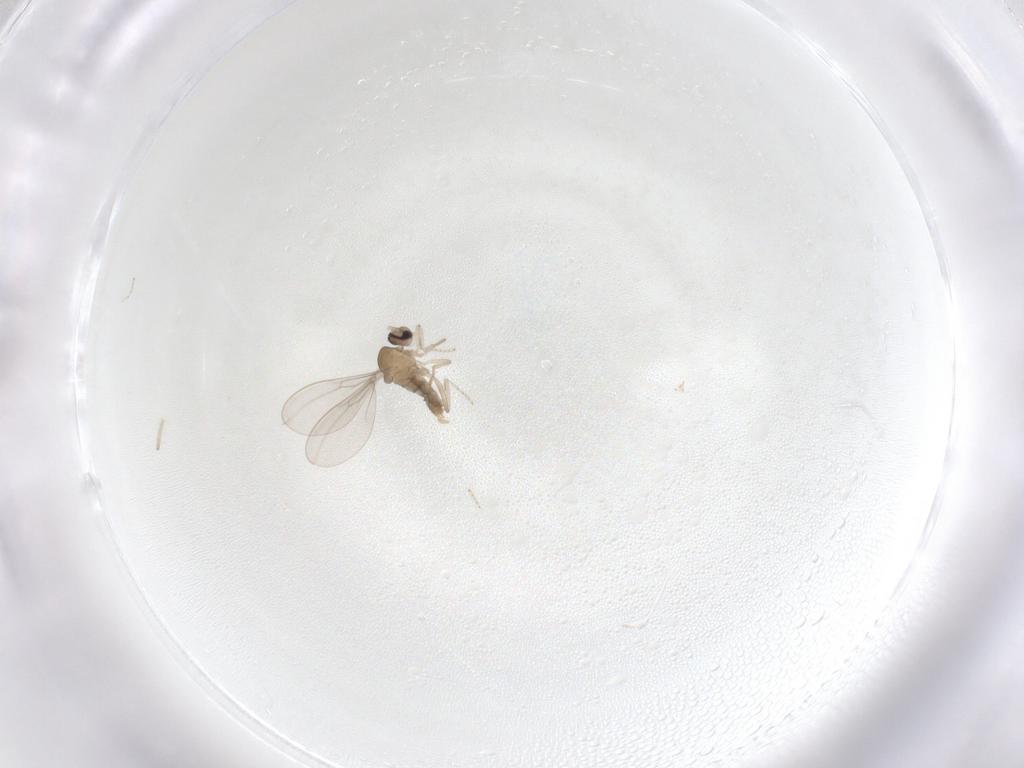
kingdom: Animalia
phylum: Arthropoda
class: Insecta
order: Diptera
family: Cecidomyiidae
